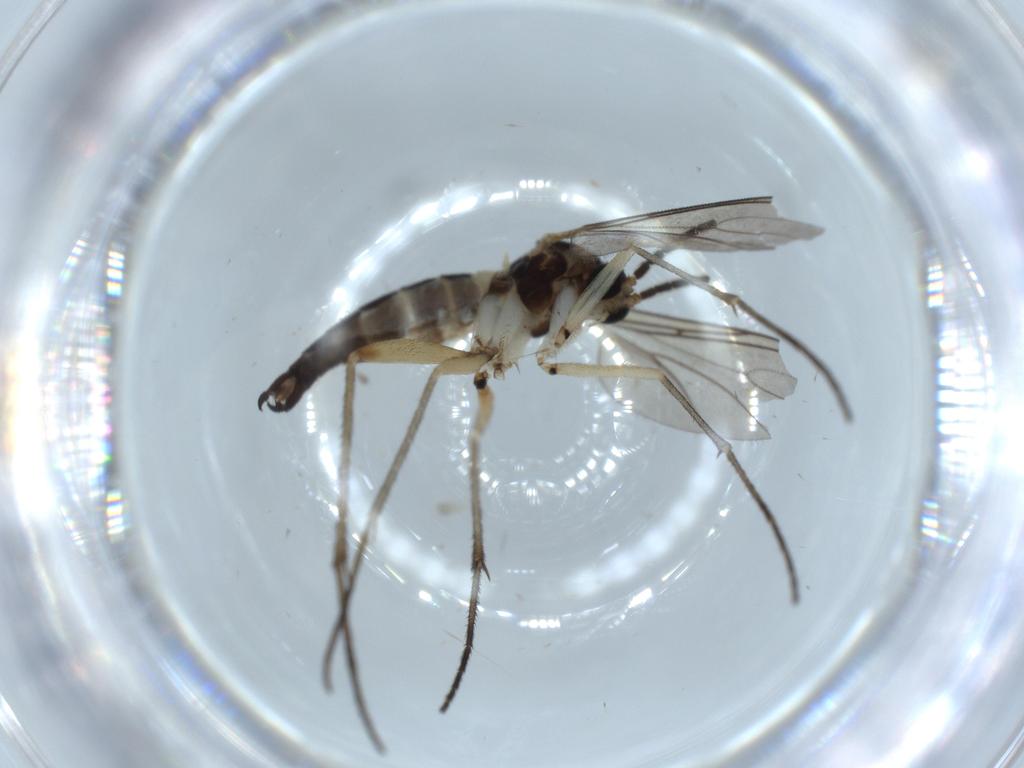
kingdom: Animalia
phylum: Arthropoda
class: Insecta
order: Diptera
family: Sciaridae
